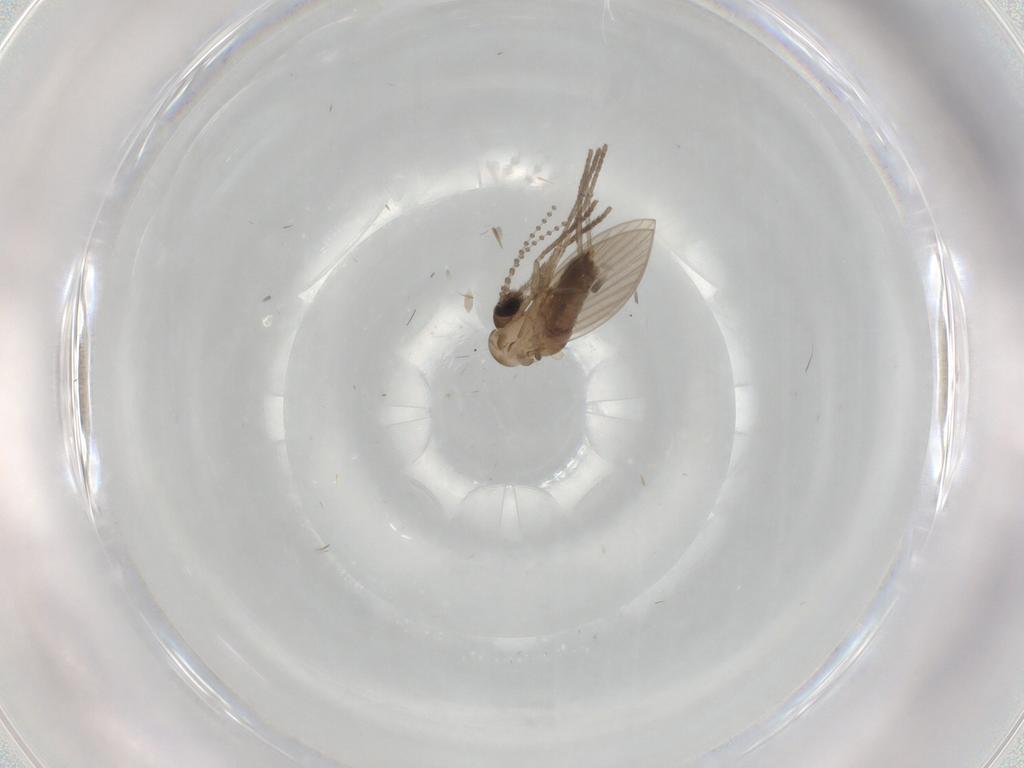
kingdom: Animalia
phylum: Arthropoda
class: Insecta
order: Diptera
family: Psychodidae
